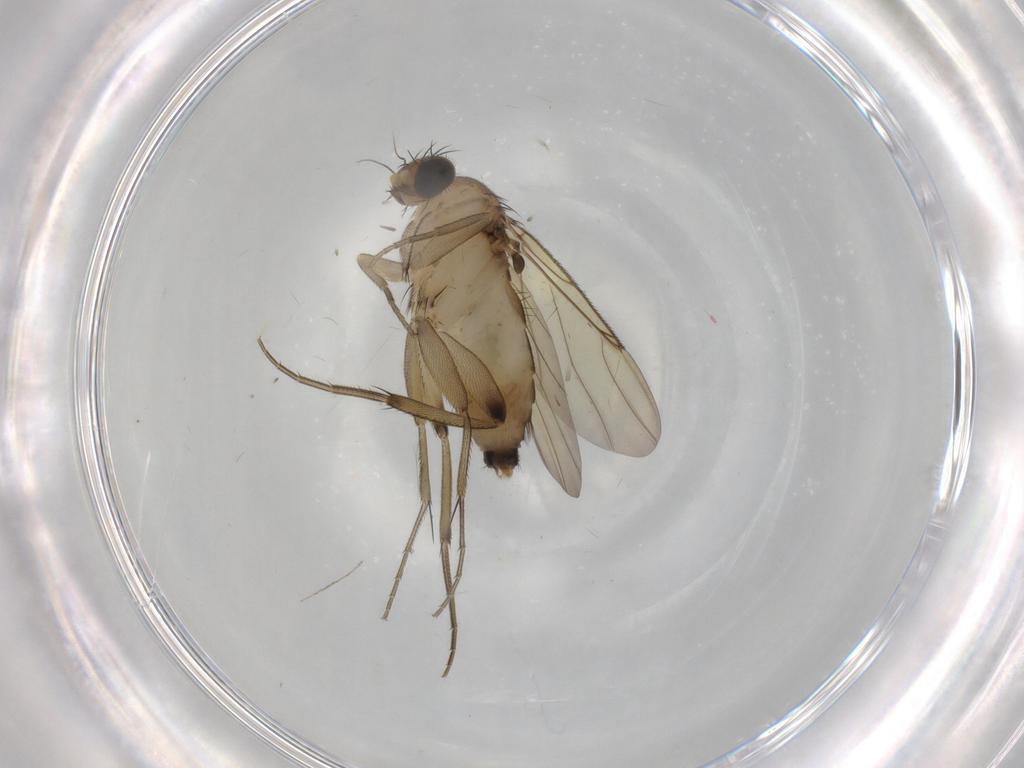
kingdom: Animalia
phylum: Arthropoda
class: Insecta
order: Diptera
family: Phoridae
